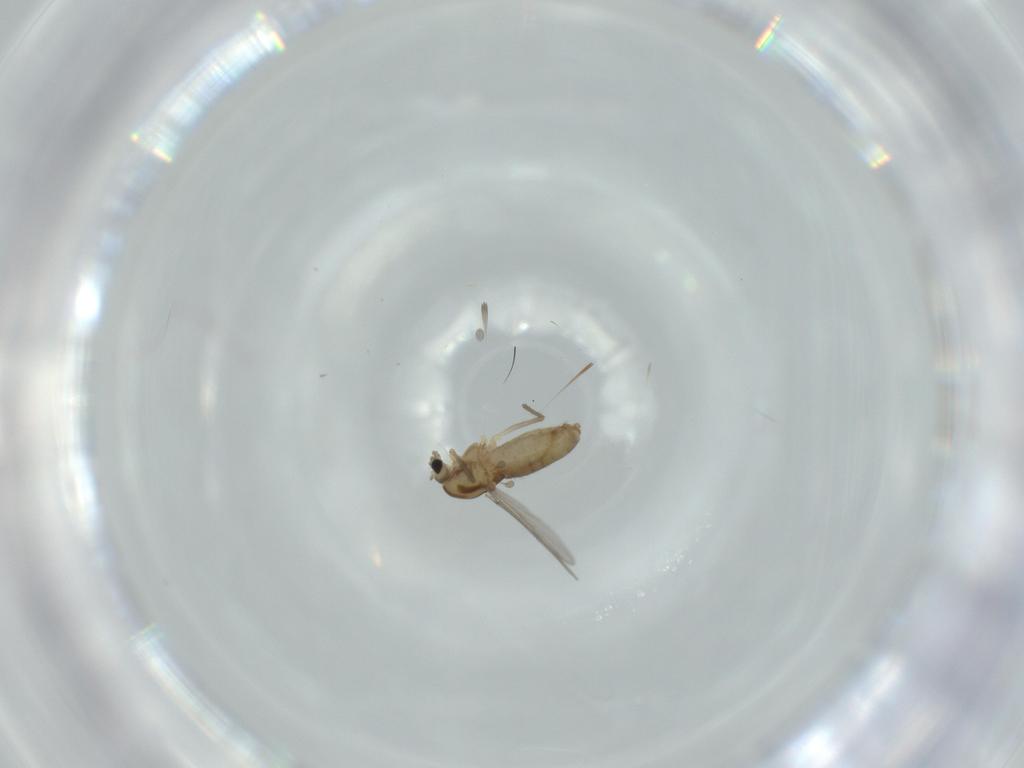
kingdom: Animalia
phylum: Arthropoda
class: Insecta
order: Diptera
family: Chironomidae
